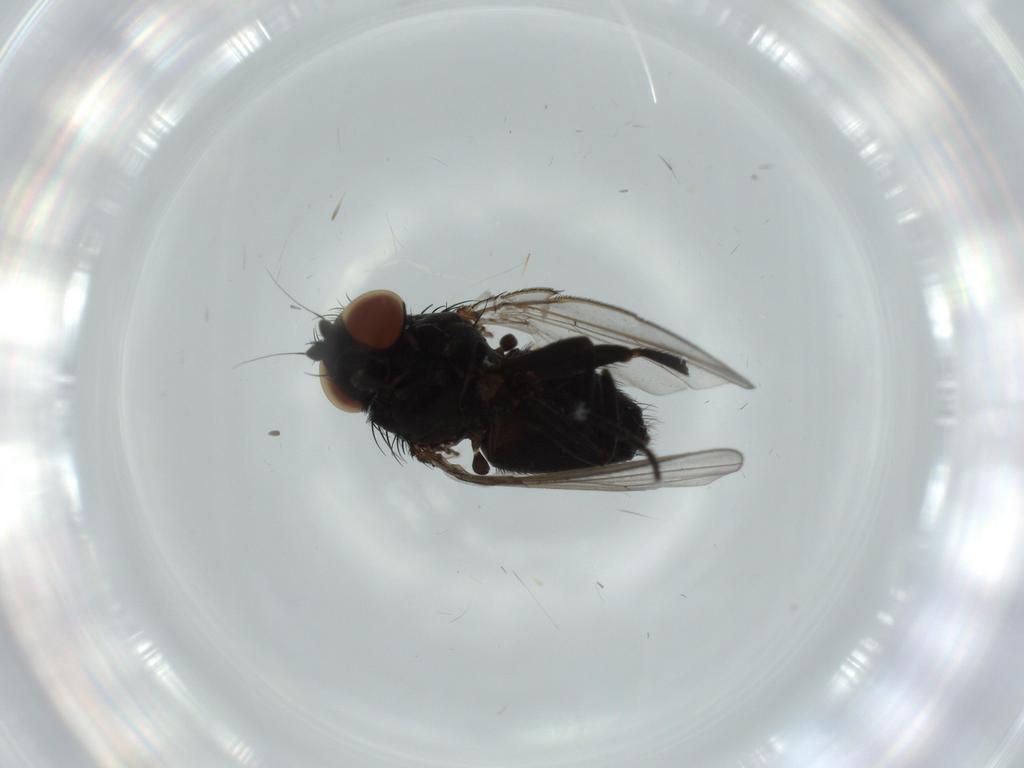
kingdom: Animalia
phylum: Arthropoda
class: Insecta
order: Diptera
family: Milichiidae
